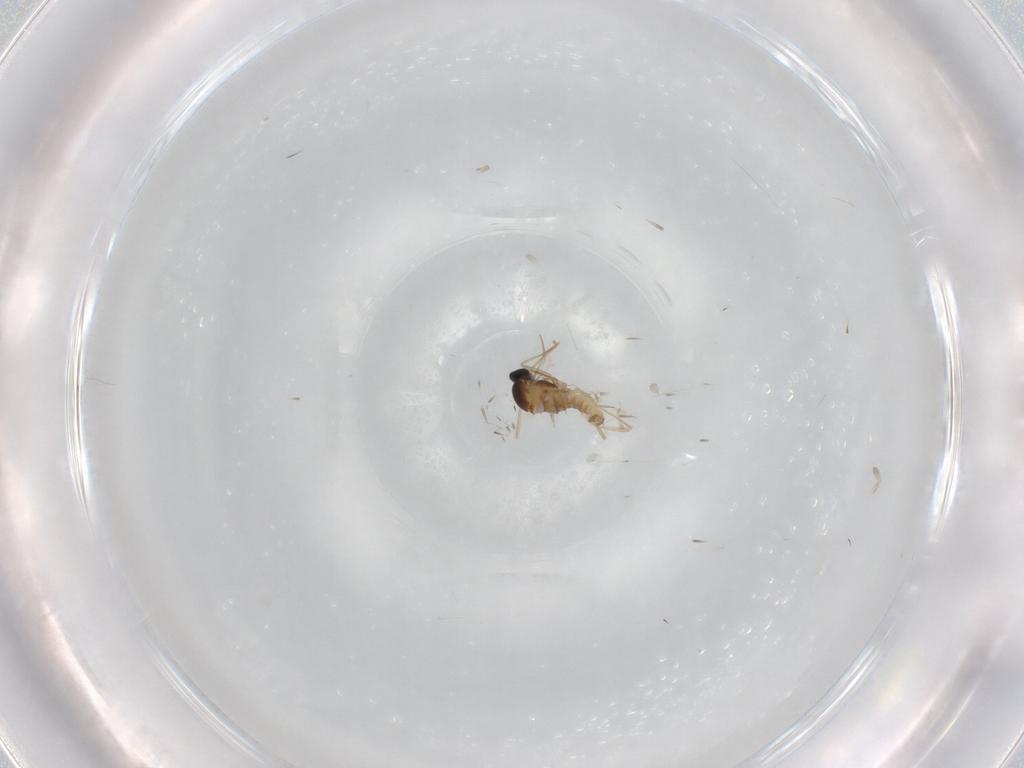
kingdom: Animalia
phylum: Arthropoda
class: Insecta
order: Diptera
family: Cecidomyiidae
